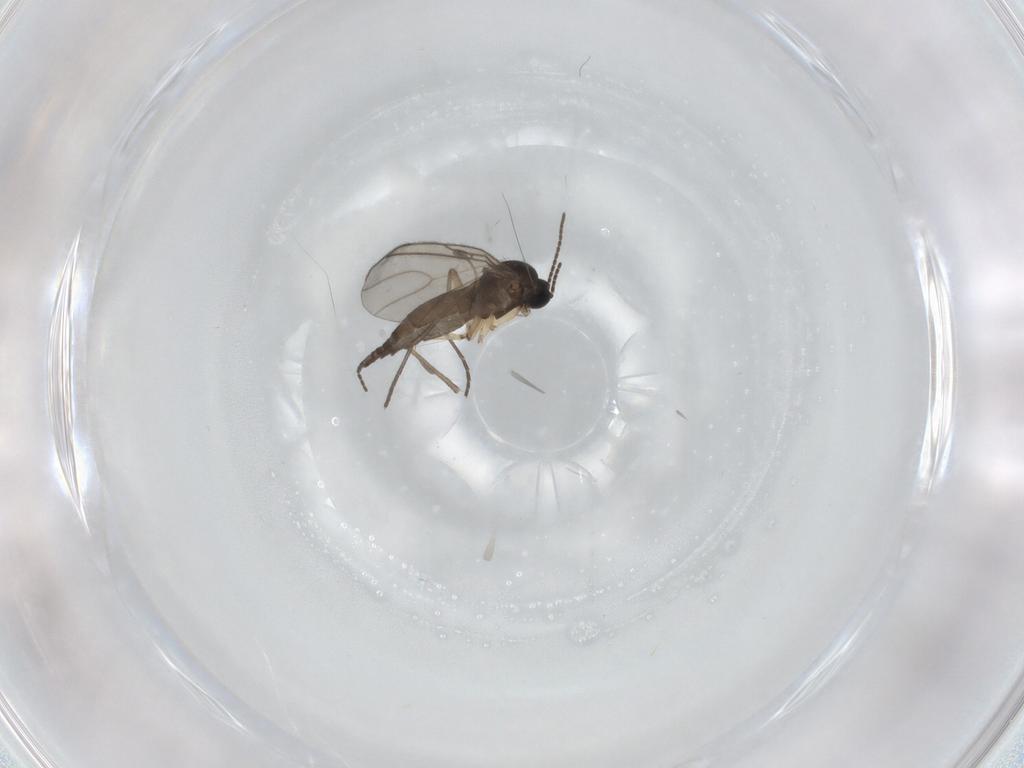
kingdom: Animalia
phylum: Arthropoda
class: Insecta
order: Diptera
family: Sciaridae
